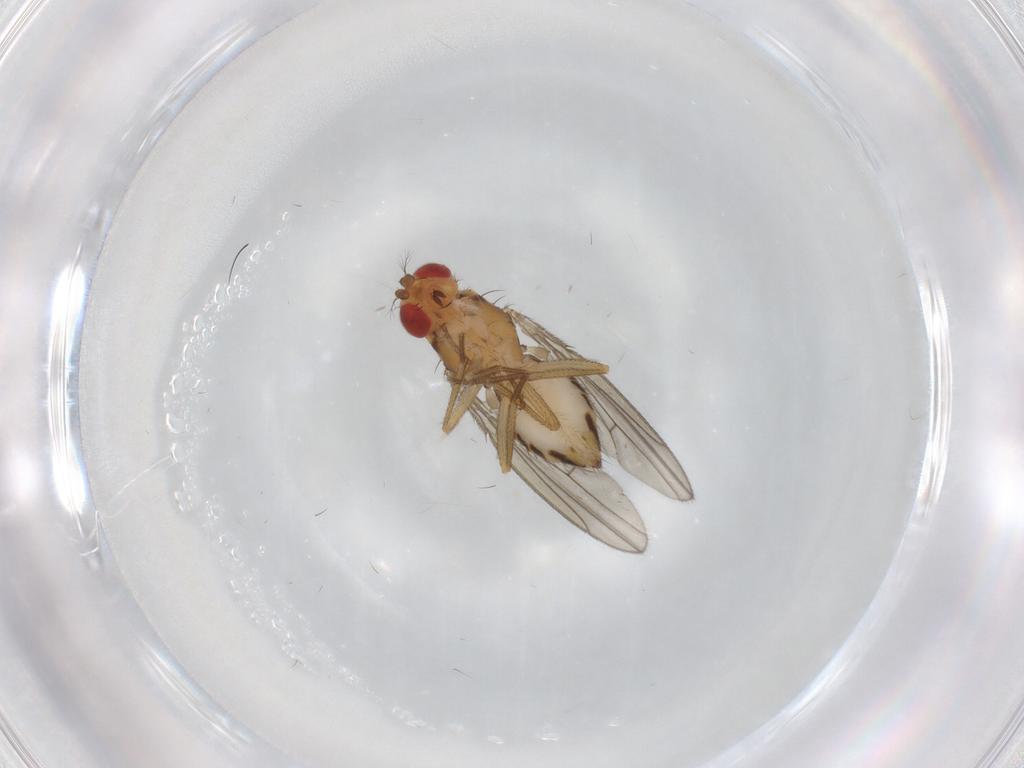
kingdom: Animalia
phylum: Arthropoda
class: Insecta
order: Diptera
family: Drosophilidae
